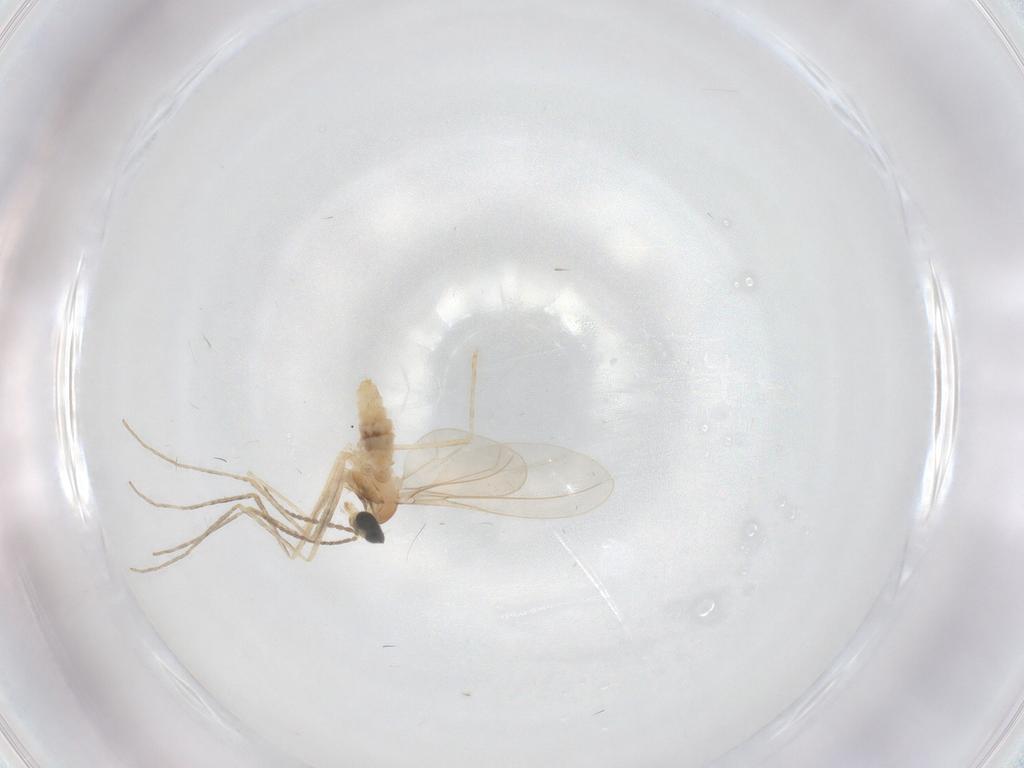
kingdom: Animalia
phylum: Arthropoda
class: Insecta
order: Diptera
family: Cecidomyiidae
